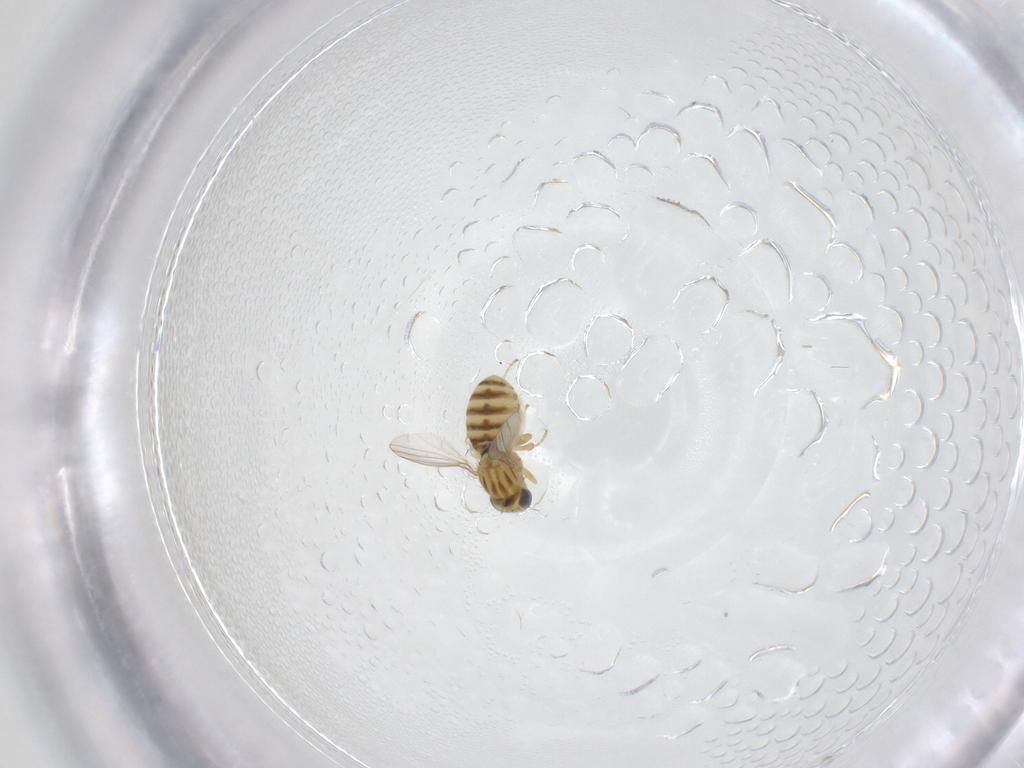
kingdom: Animalia
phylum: Arthropoda
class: Insecta
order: Diptera
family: Chyromyidae
